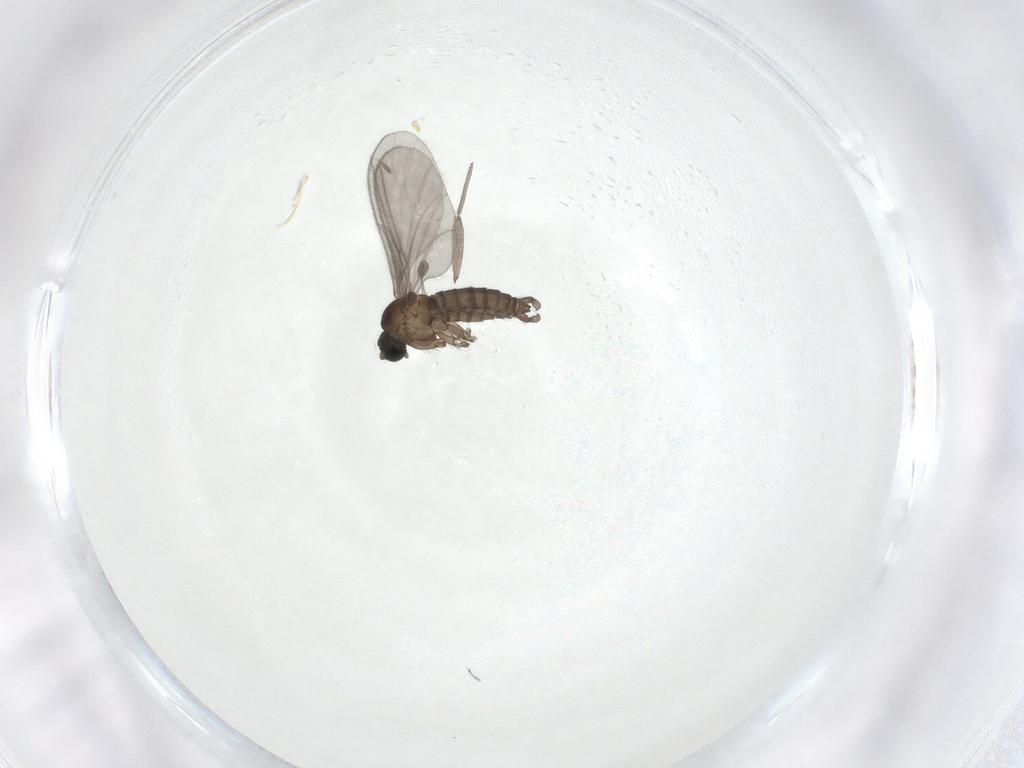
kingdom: Animalia
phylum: Arthropoda
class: Insecta
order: Diptera
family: Sciaridae
